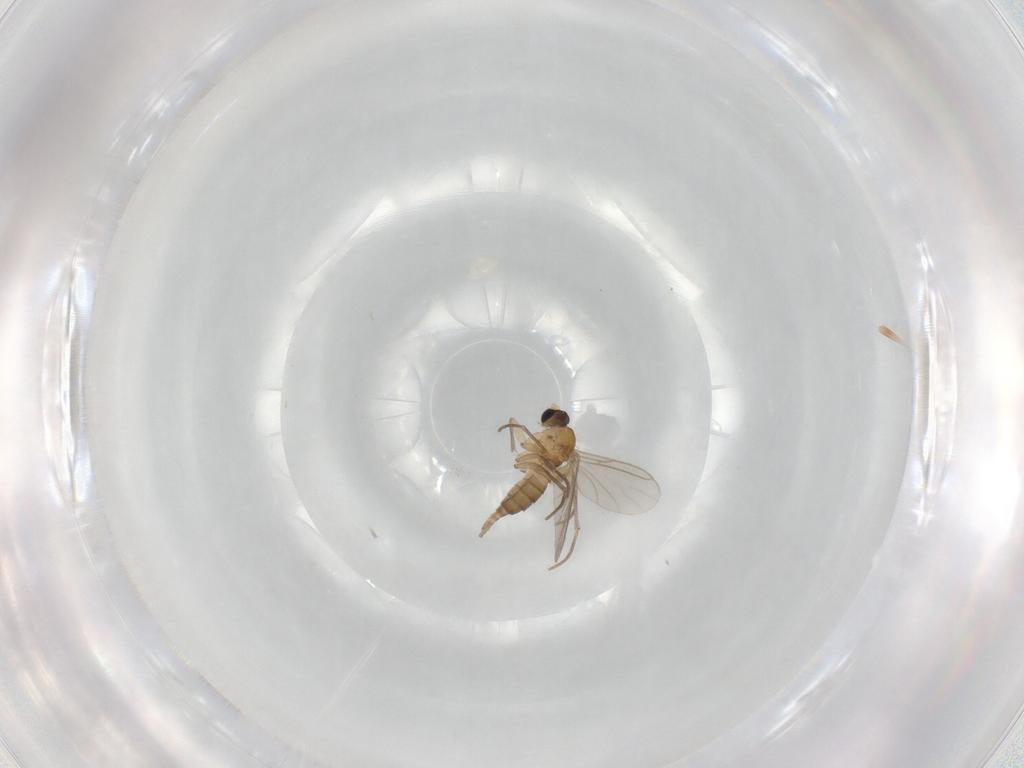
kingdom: Animalia
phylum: Arthropoda
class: Insecta
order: Diptera
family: Sciaridae
